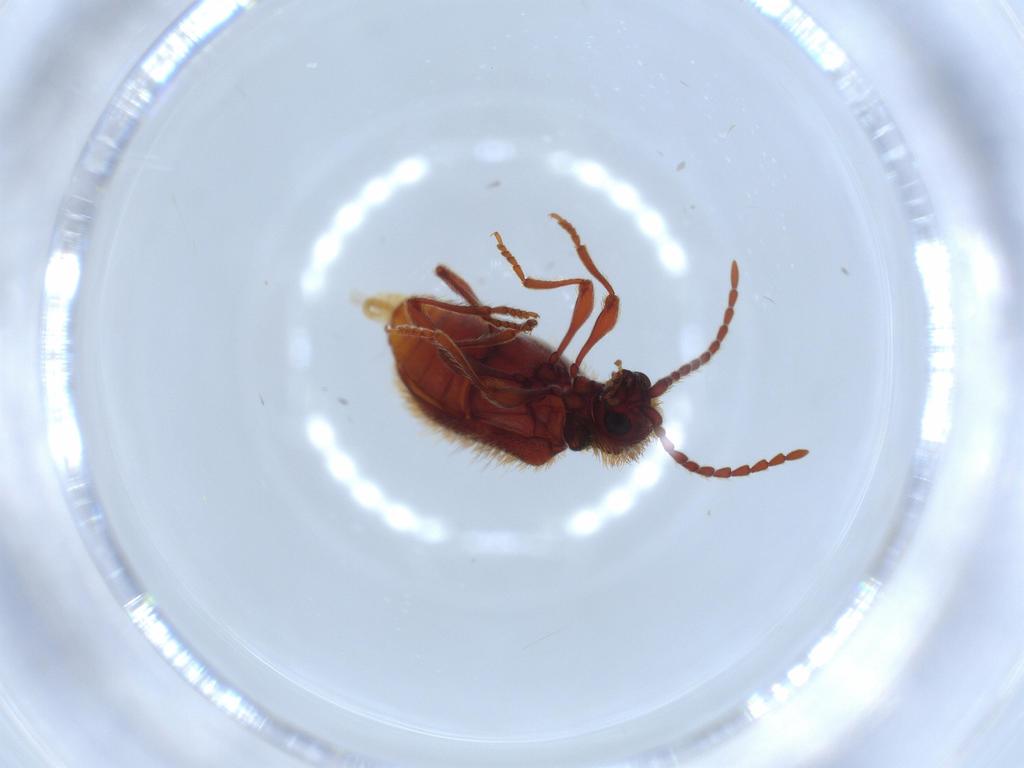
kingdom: Animalia
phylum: Arthropoda
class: Insecta
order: Coleoptera
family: Ptinidae
